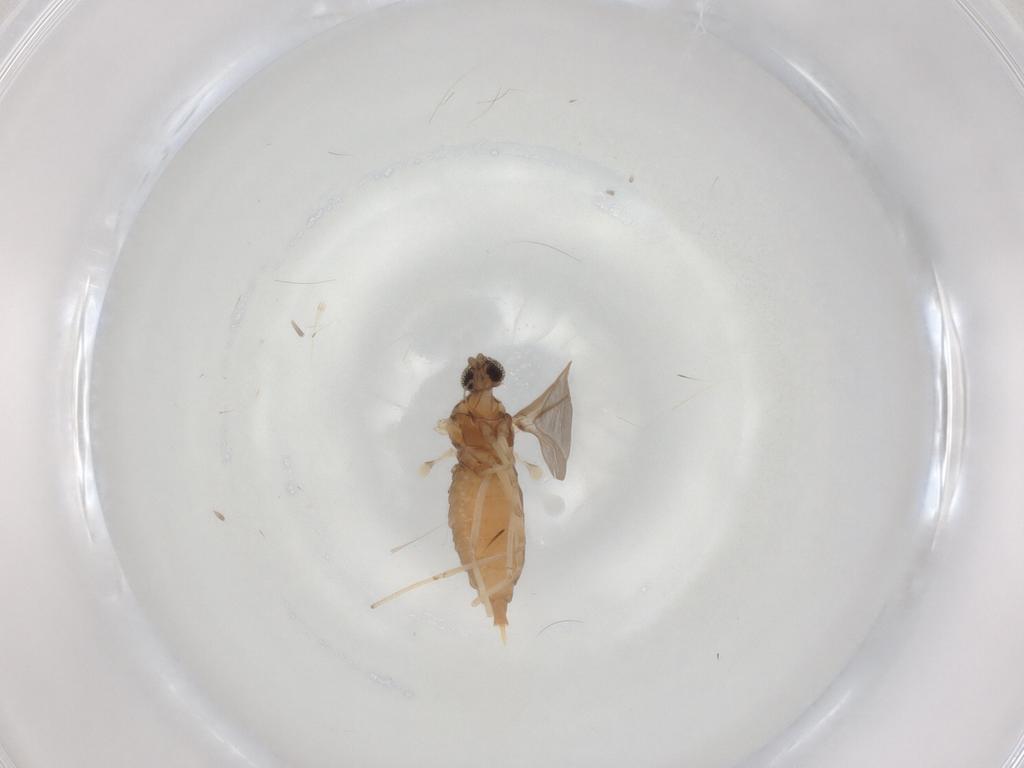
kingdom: Animalia
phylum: Arthropoda
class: Insecta
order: Diptera
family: Cecidomyiidae
